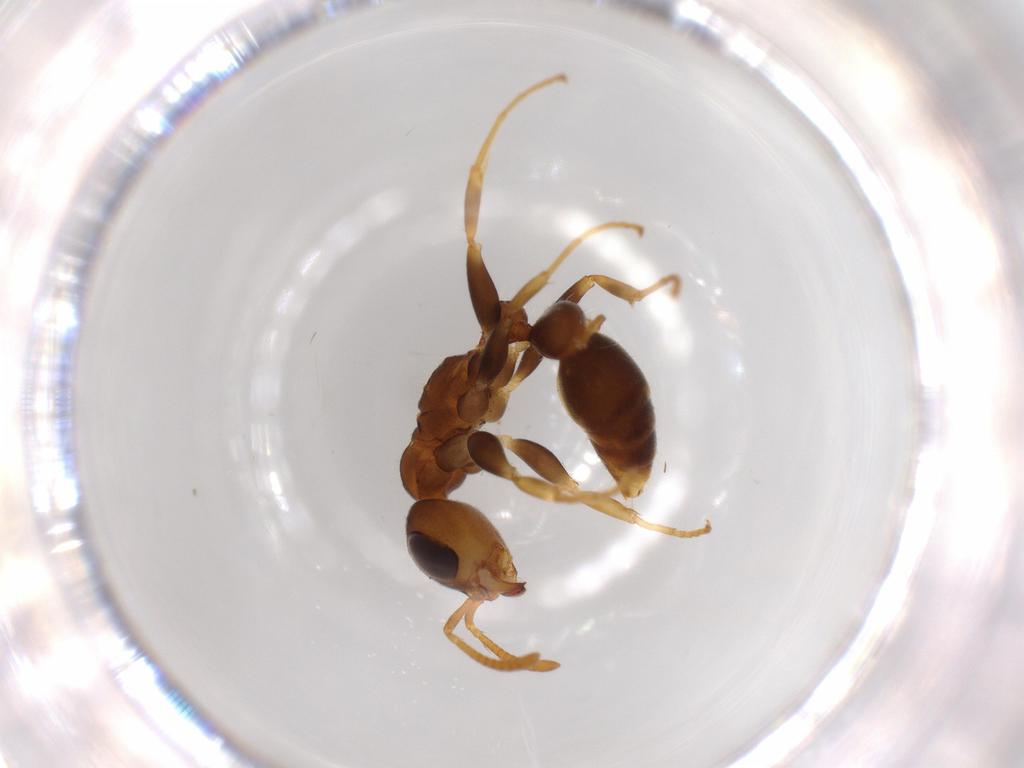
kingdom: Animalia
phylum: Arthropoda
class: Insecta
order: Hymenoptera
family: Formicidae
